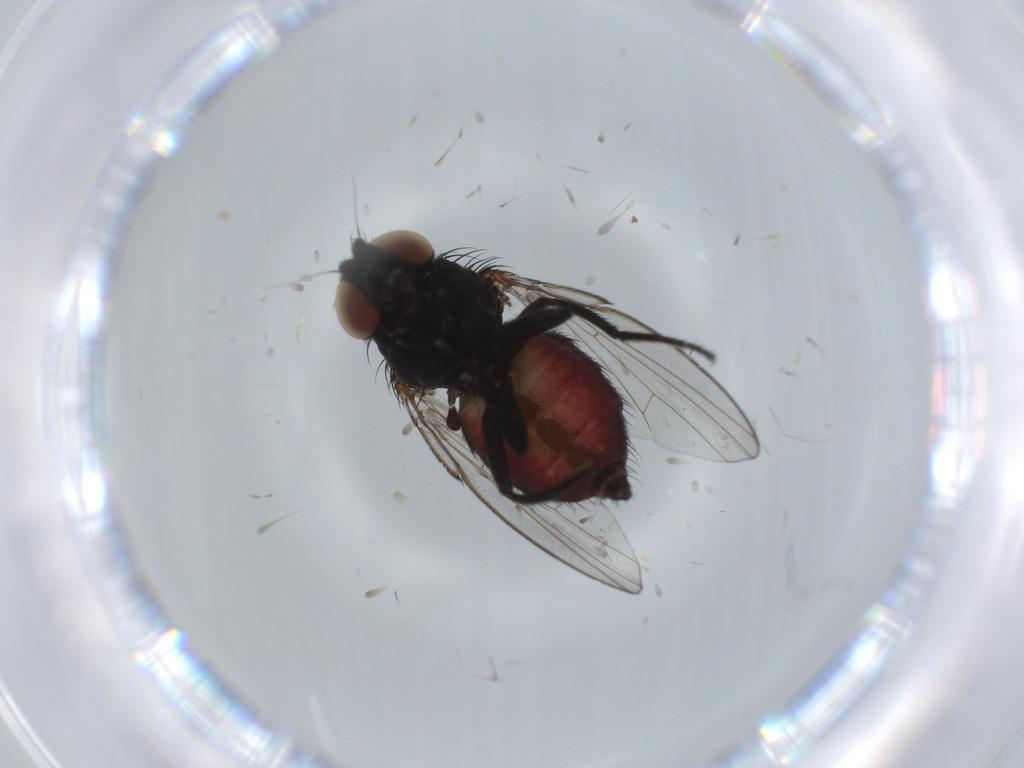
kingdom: Animalia
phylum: Arthropoda
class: Insecta
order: Diptera
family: Milichiidae
